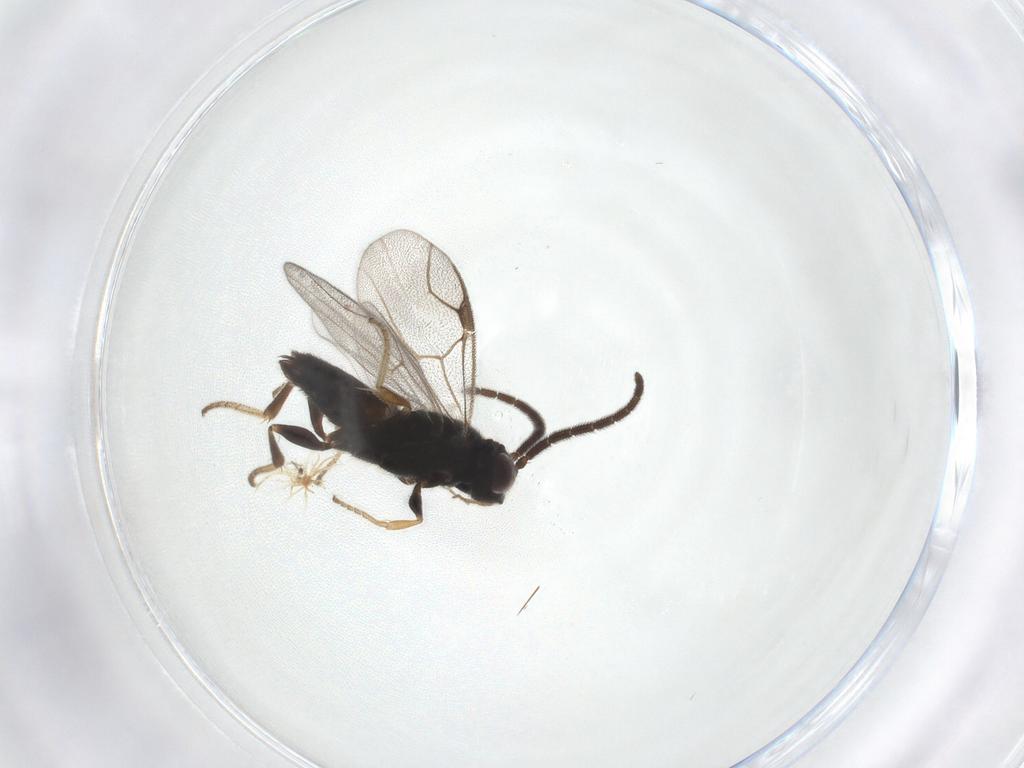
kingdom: Animalia
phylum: Arthropoda
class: Insecta
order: Hymenoptera
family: Dryinidae
